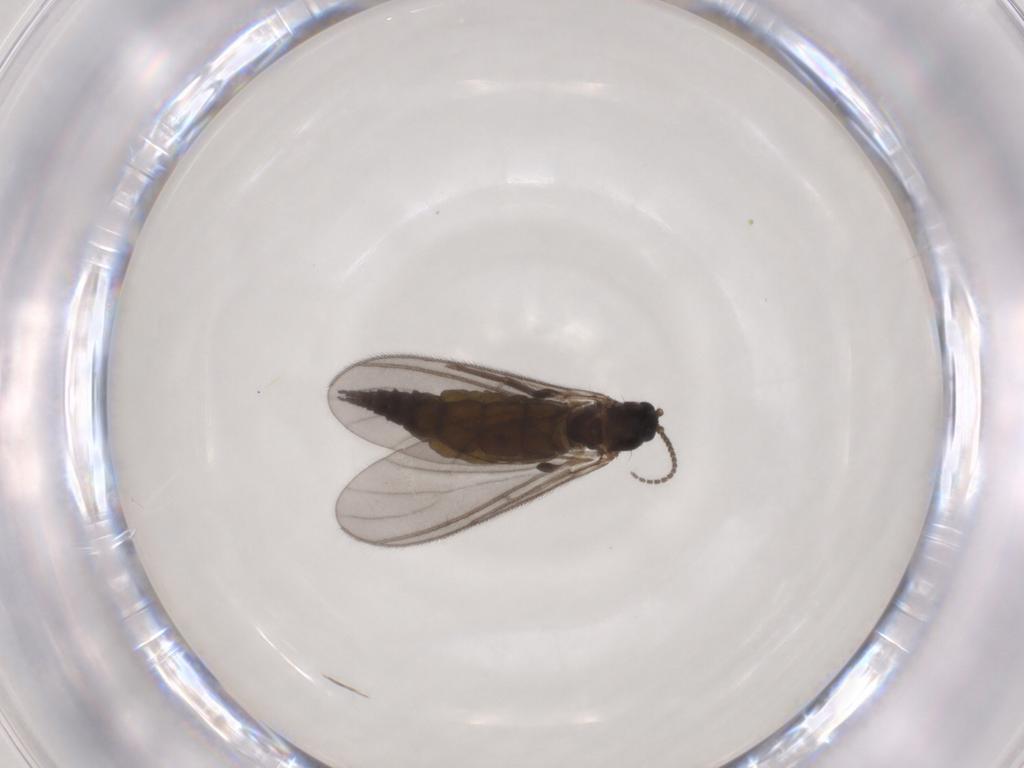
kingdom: Animalia
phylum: Arthropoda
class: Insecta
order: Diptera
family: Sciaridae
